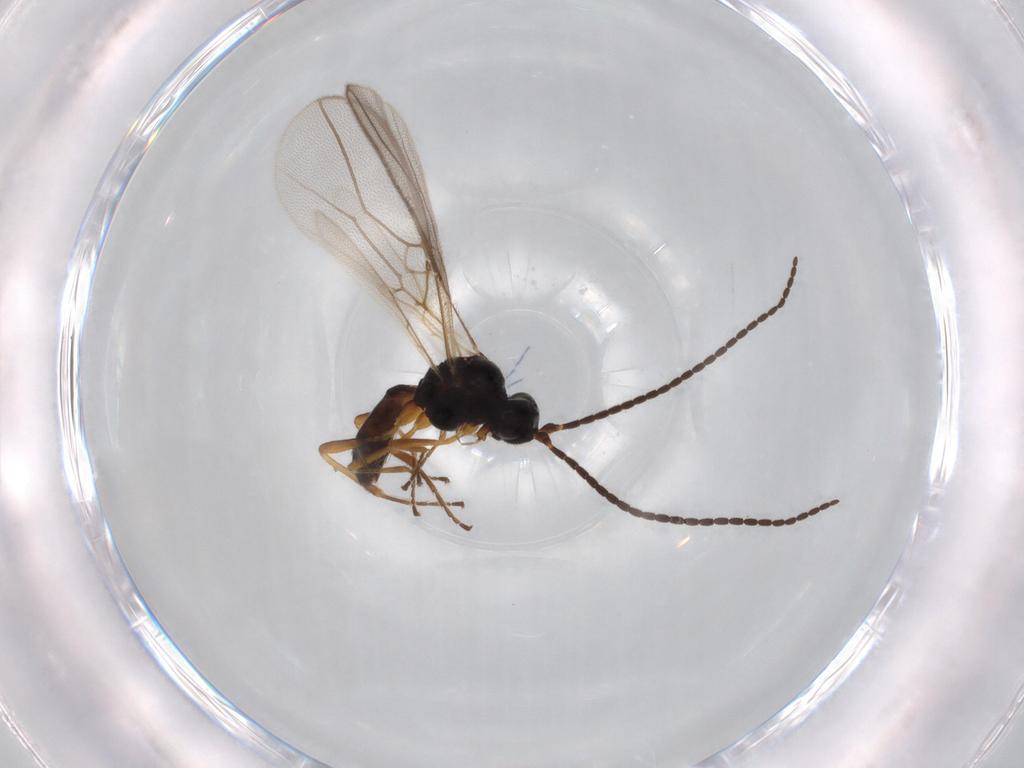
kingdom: Animalia
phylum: Arthropoda
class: Insecta
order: Hymenoptera
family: Braconidae
